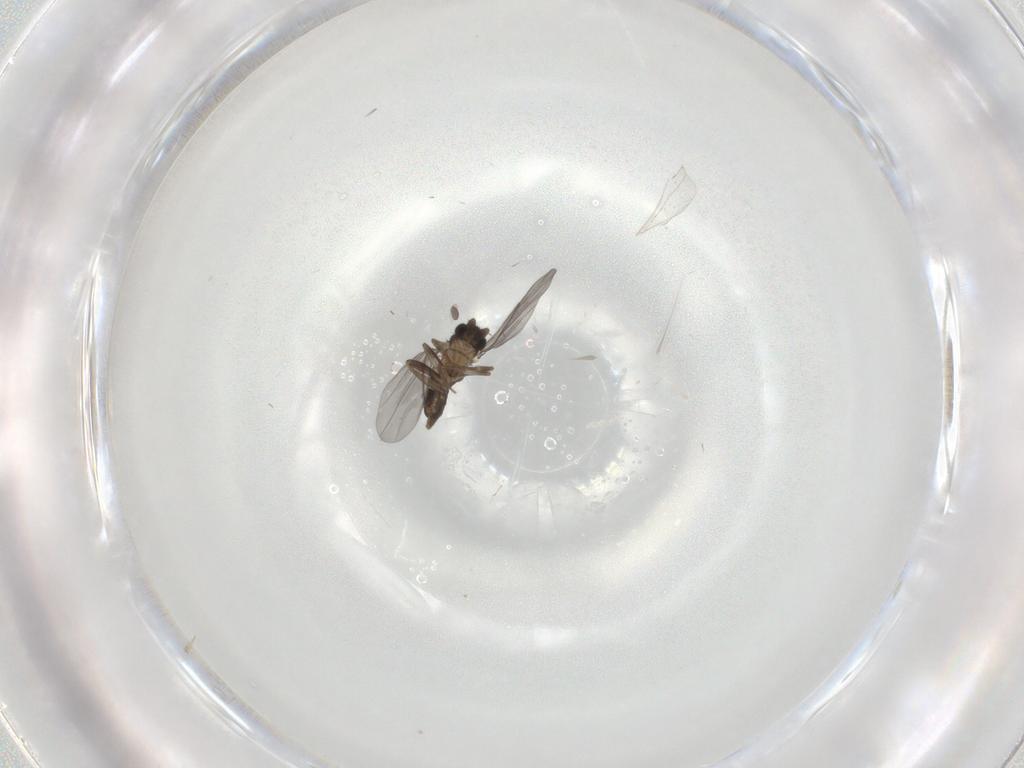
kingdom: Animalia
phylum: Arthropoda
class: Insecta
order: Diptera
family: Cecidomyiidae
